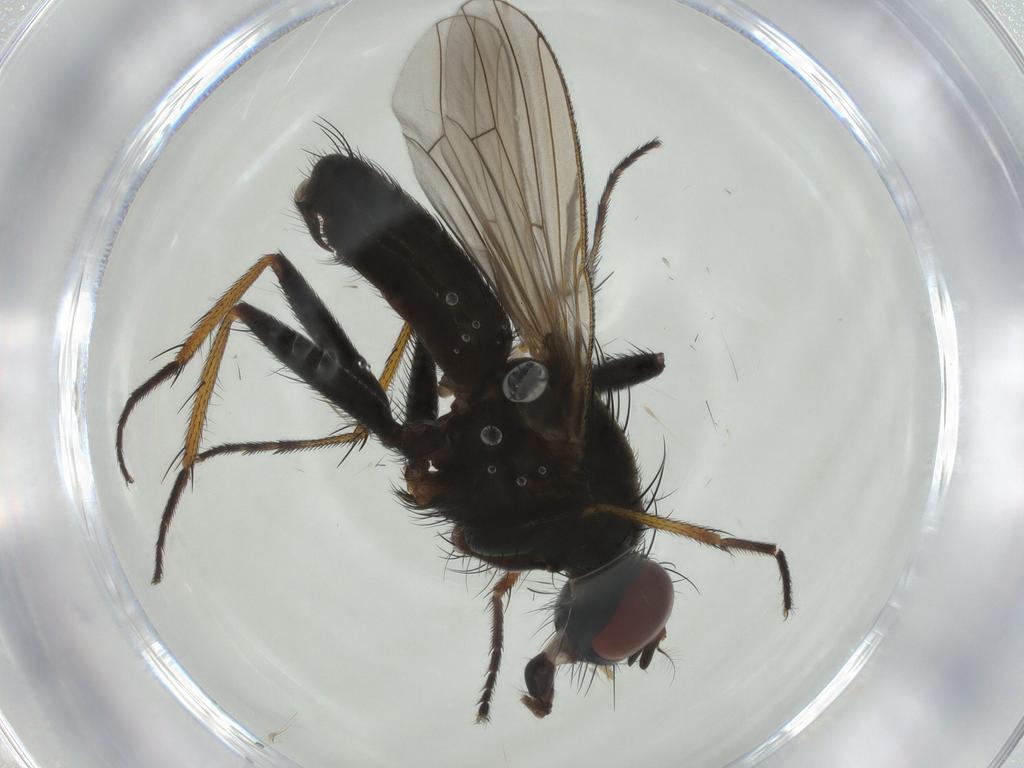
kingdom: Animalia
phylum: Arthropoda
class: Insecta
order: Diptera
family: Muscidae
